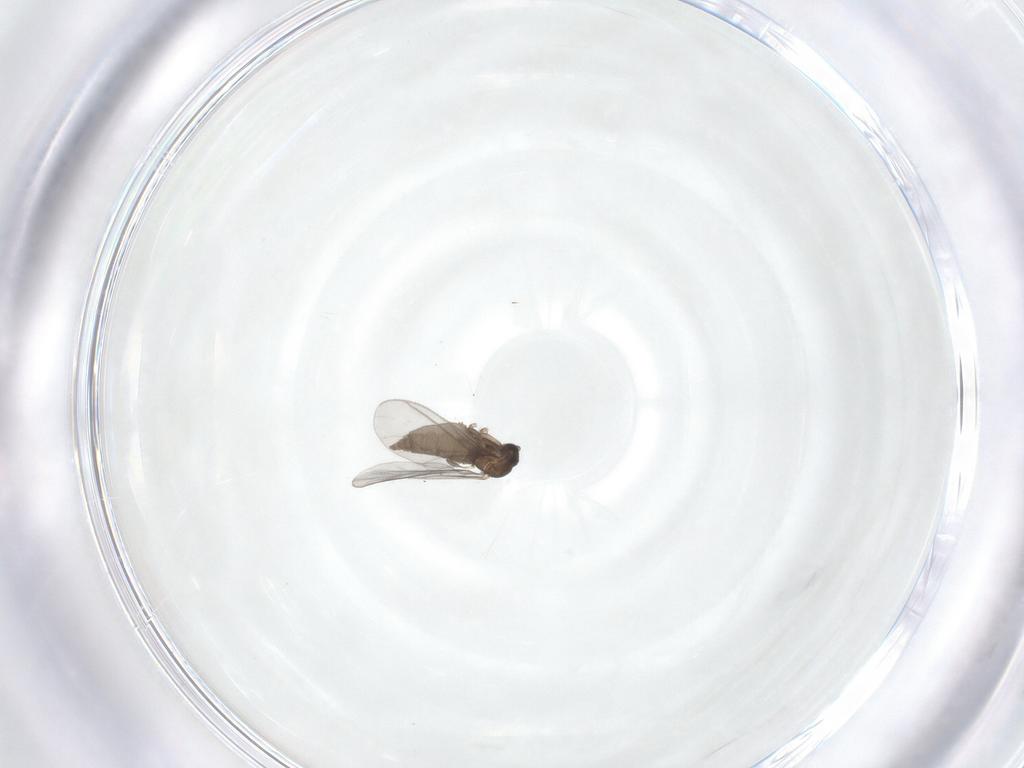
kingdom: Animalia
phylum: Arthropoda
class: Insecta
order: Diptera
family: Sciaridae
